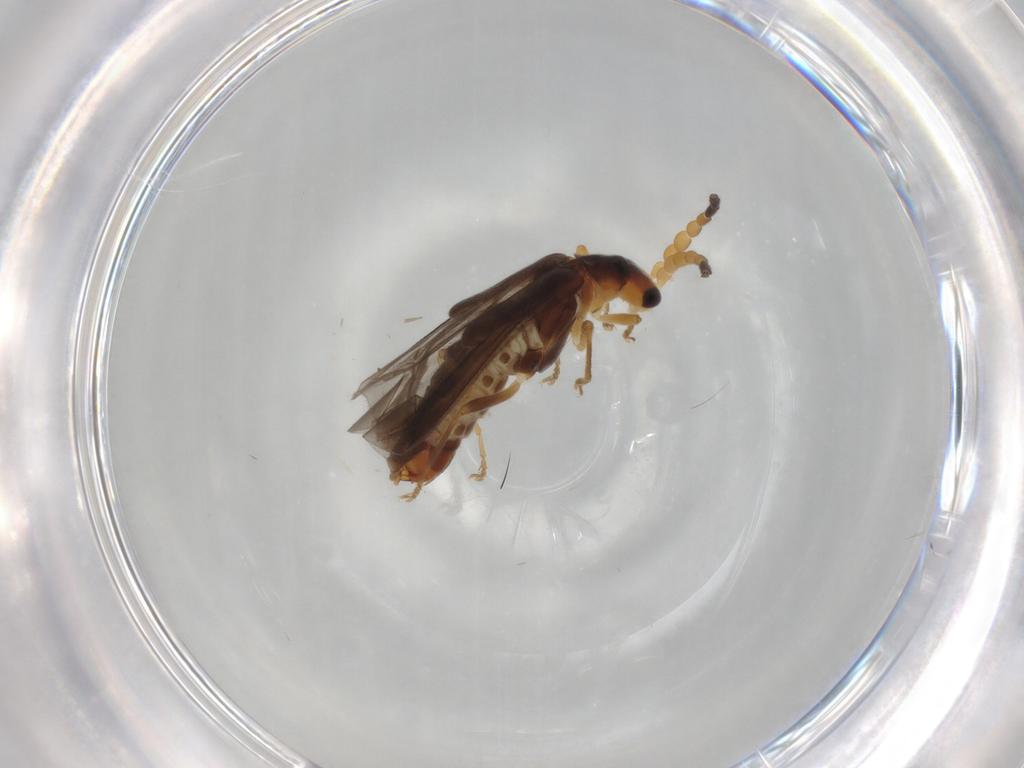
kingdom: Animalia
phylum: Arthropoda
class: Insecta
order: Coleoptera
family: Cantharidae
